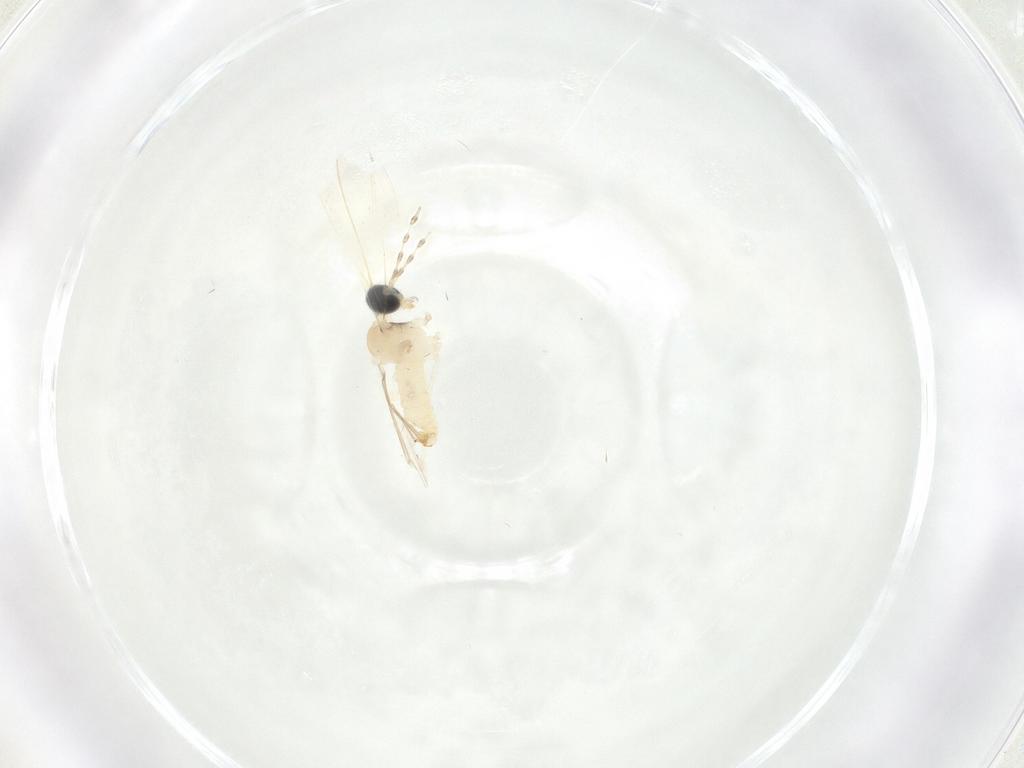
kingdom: Animalia
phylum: Arthropoda
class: Insecta
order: Diptera
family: Cecidomyiidae
